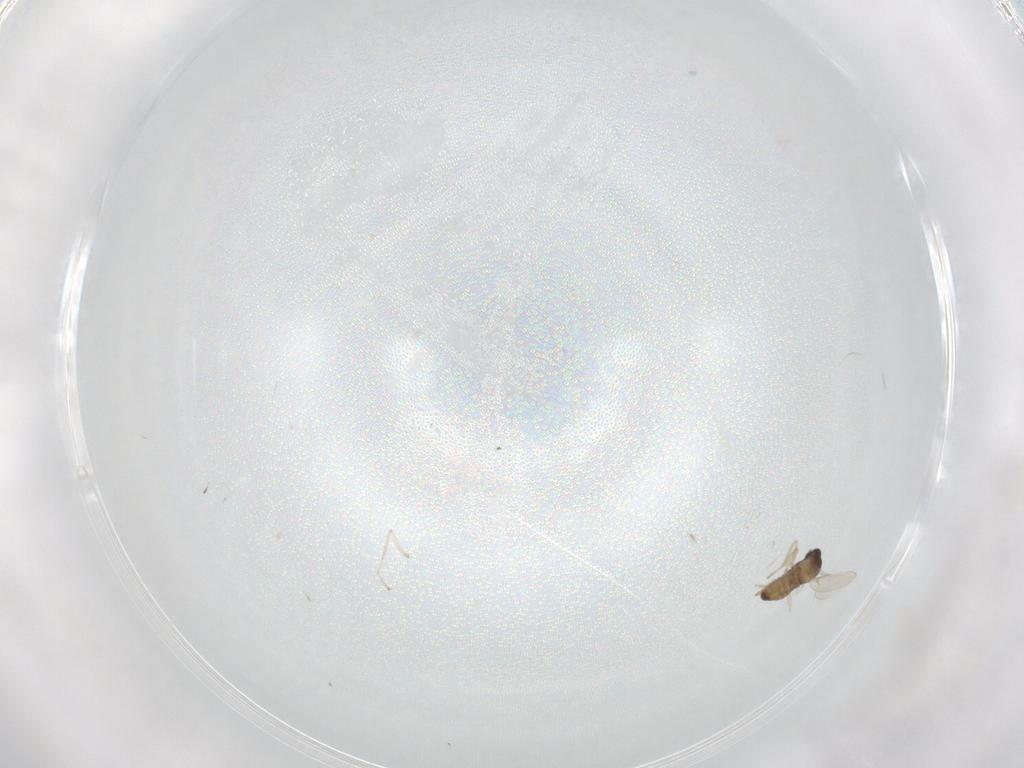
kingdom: Animalia
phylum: Arthropoda
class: Insecta
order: Diptera
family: Cecidomyiidae
